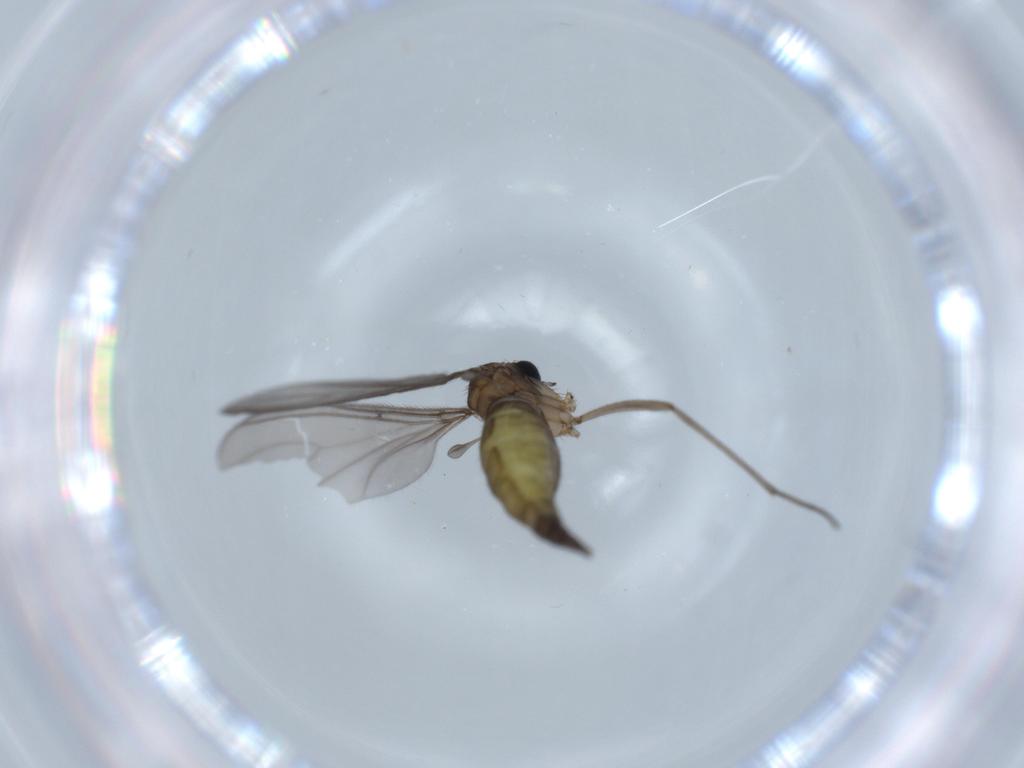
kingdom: Animalia
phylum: Arthropoda
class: Insecta
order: Diptera
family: Sciaridae
